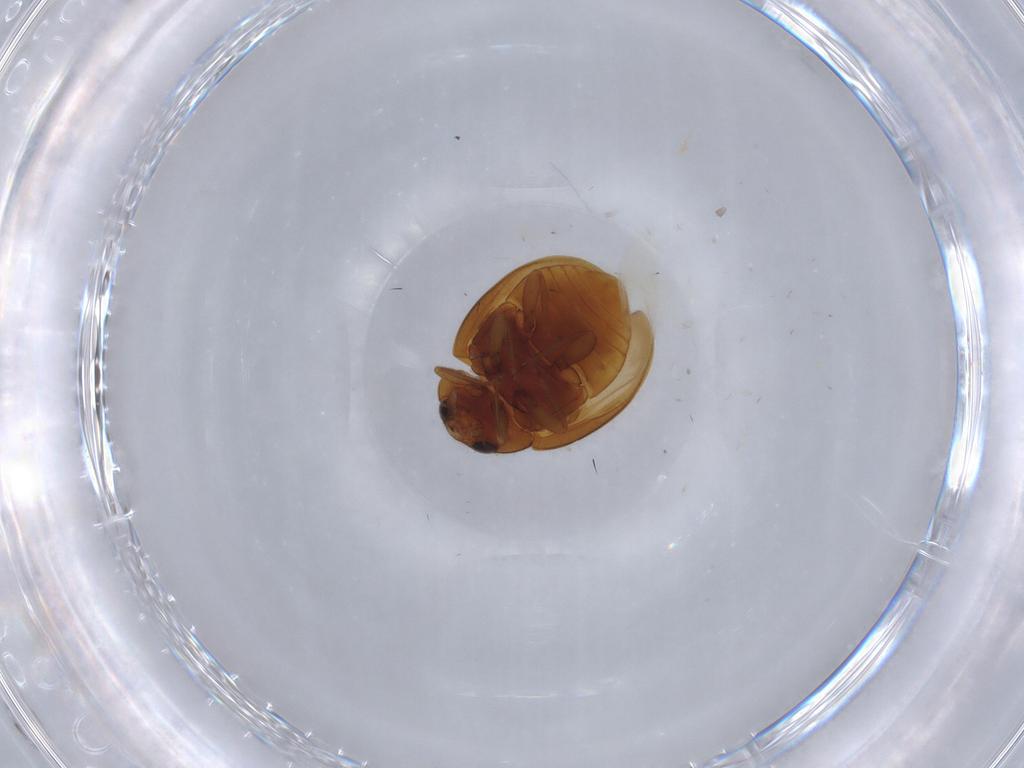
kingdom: Animalia
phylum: Arthropoda
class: Insecta
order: Coleoptera
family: Coccinellidae
